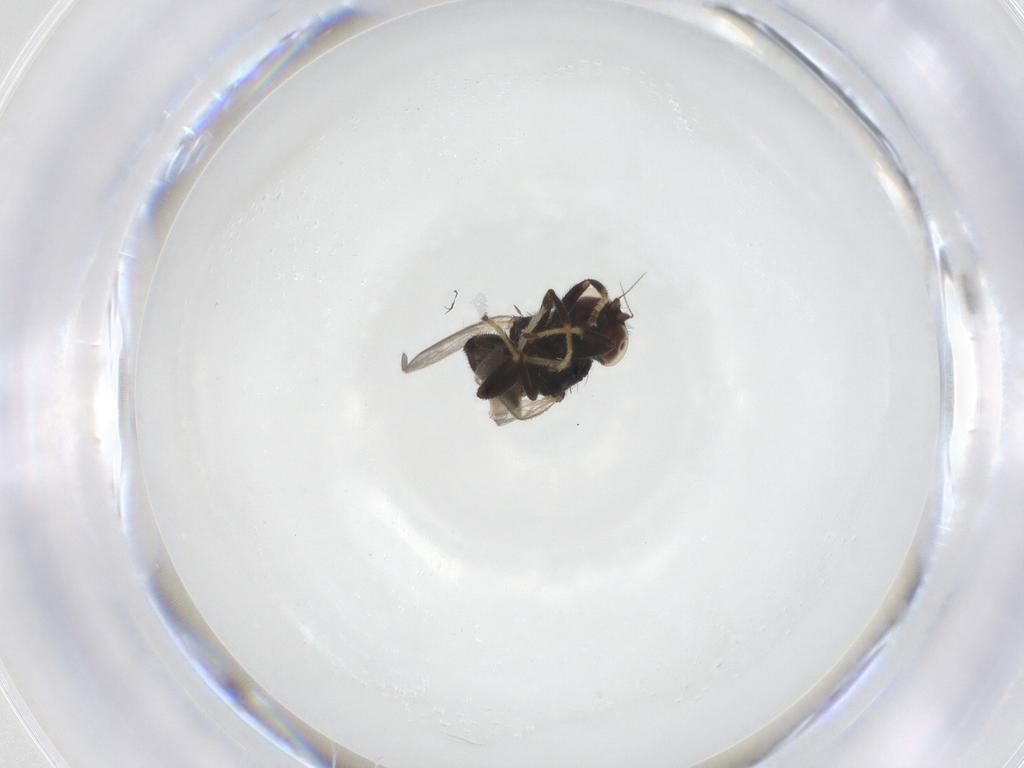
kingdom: Animalia
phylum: Arthropoda
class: Insecta
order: Diptera
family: Chloropidae
